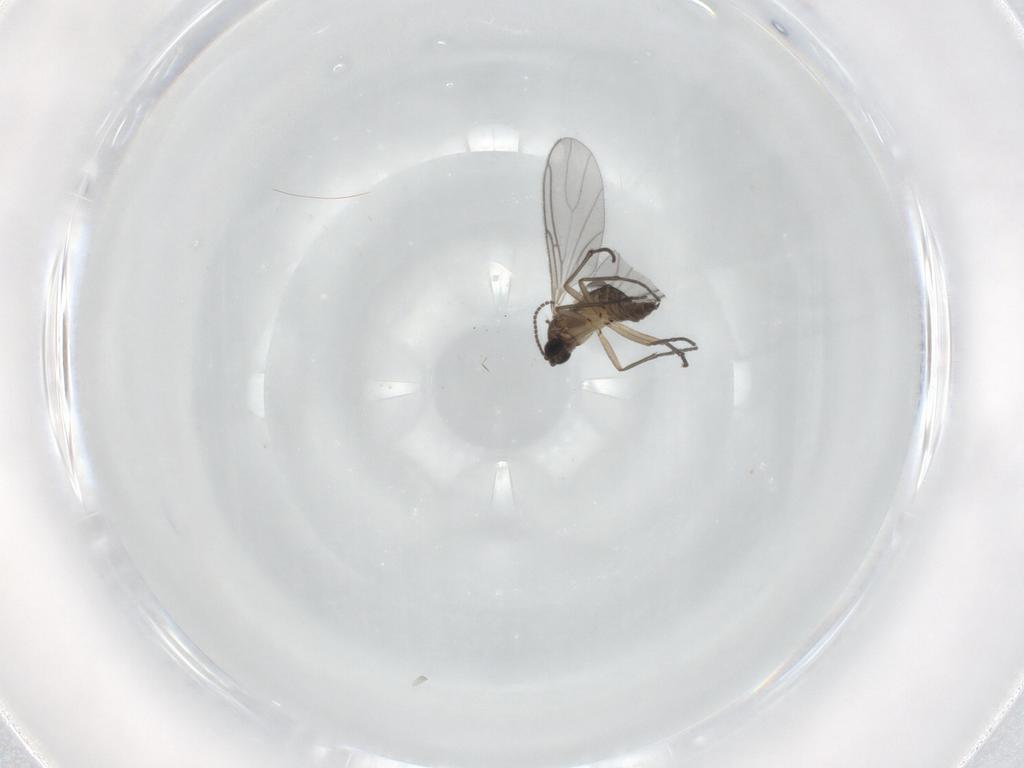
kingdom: Animalia
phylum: Arthropoda
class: Insecta
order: Diptera
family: Sciaridae
